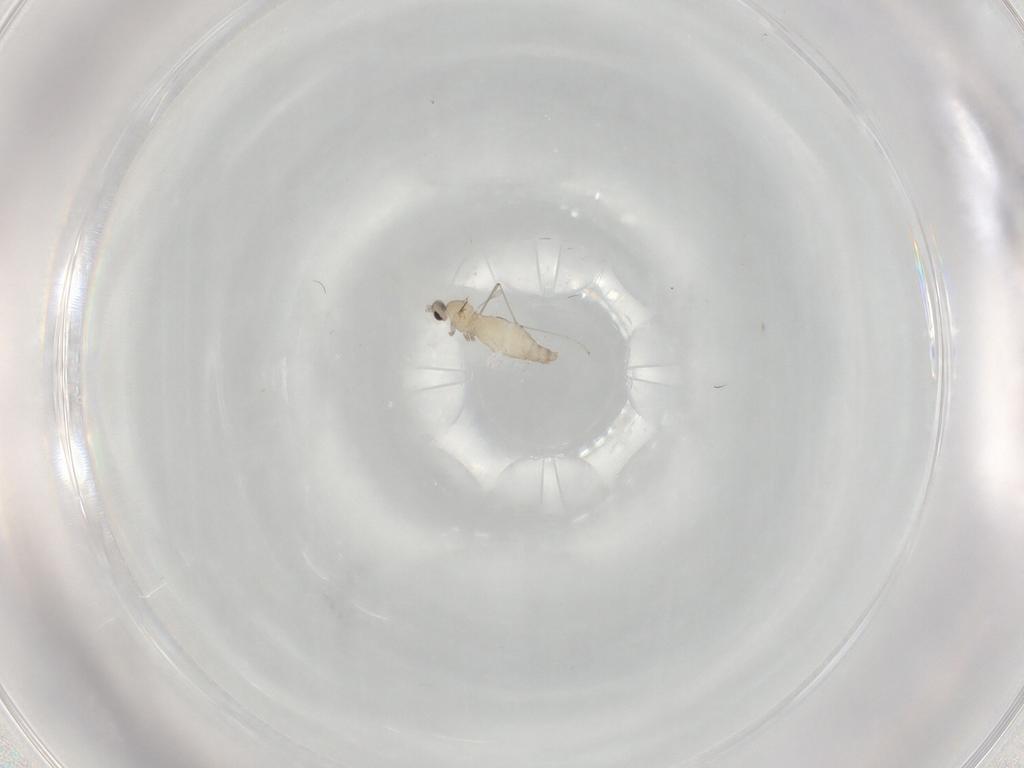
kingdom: Animalia
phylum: Arthropoda
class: Insecta
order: Diptera
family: Cecidomyiidae
